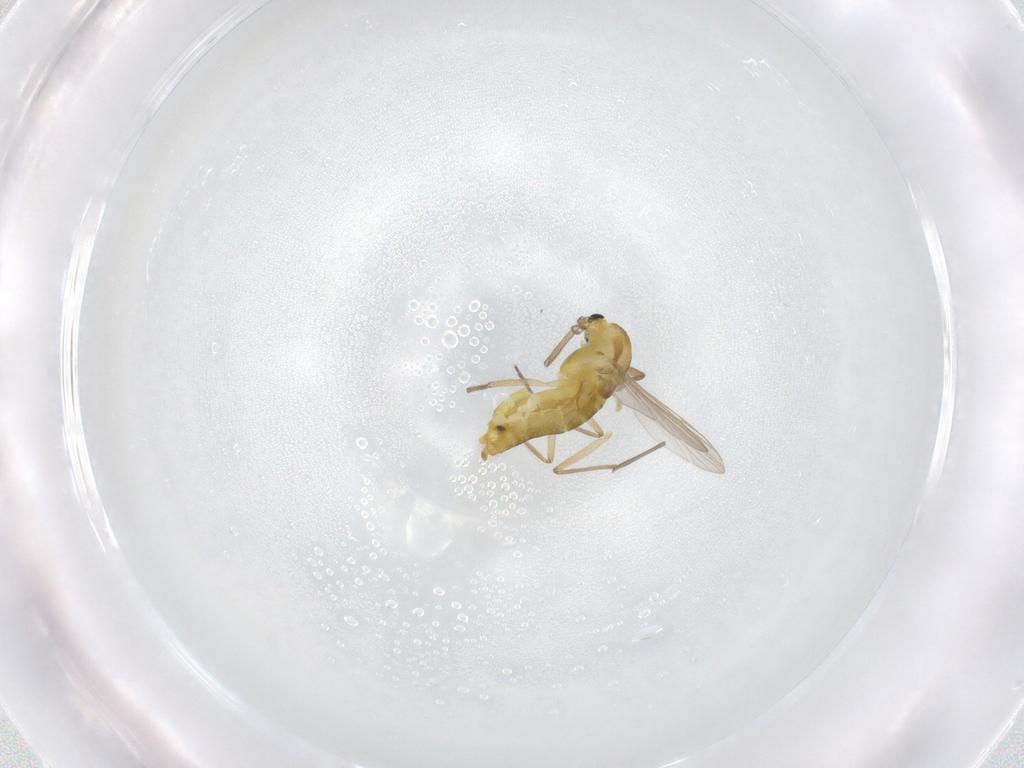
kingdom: Animalia
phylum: Arthropoda
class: Insecta
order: Diptera
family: Chironomidae
